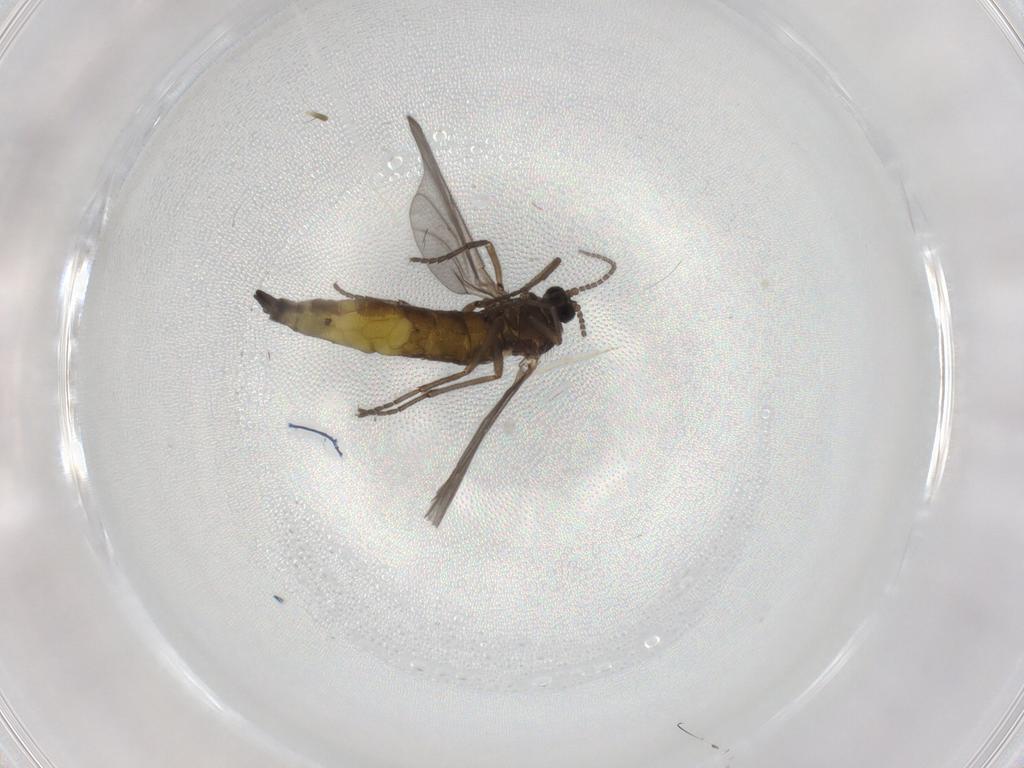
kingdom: Animalia
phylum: Arthropoda
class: Insecta
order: Diptera
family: Sciaridae
